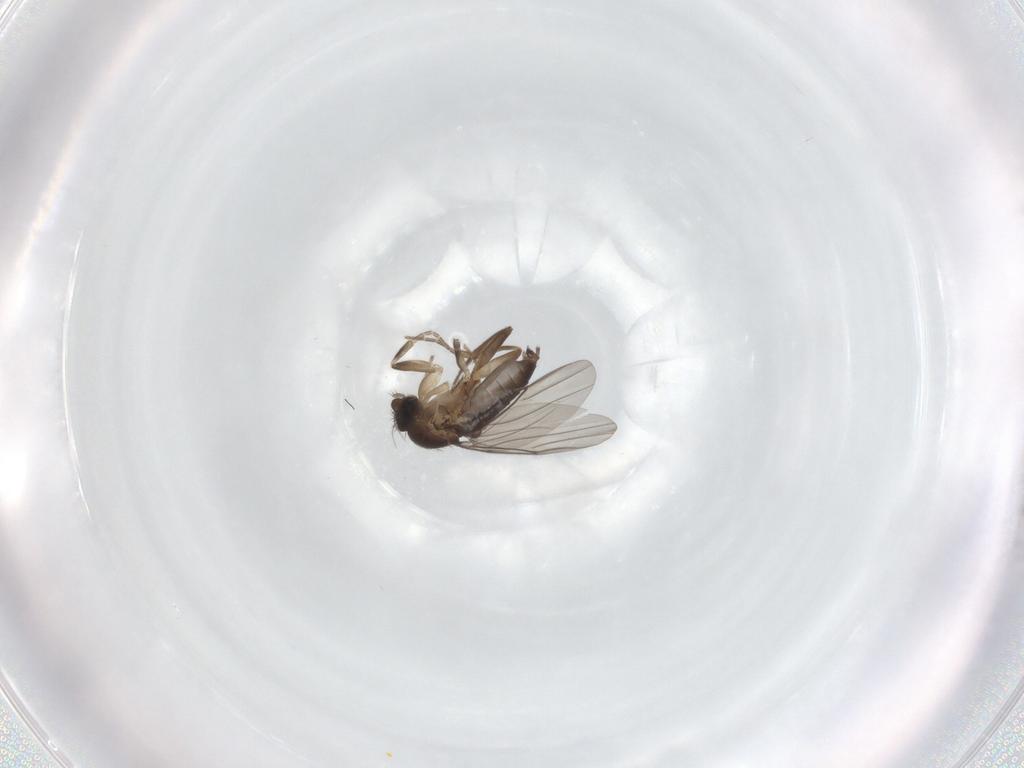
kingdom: Animalia
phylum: Arthropoda
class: Insecta
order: Diptera
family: Phoridae
